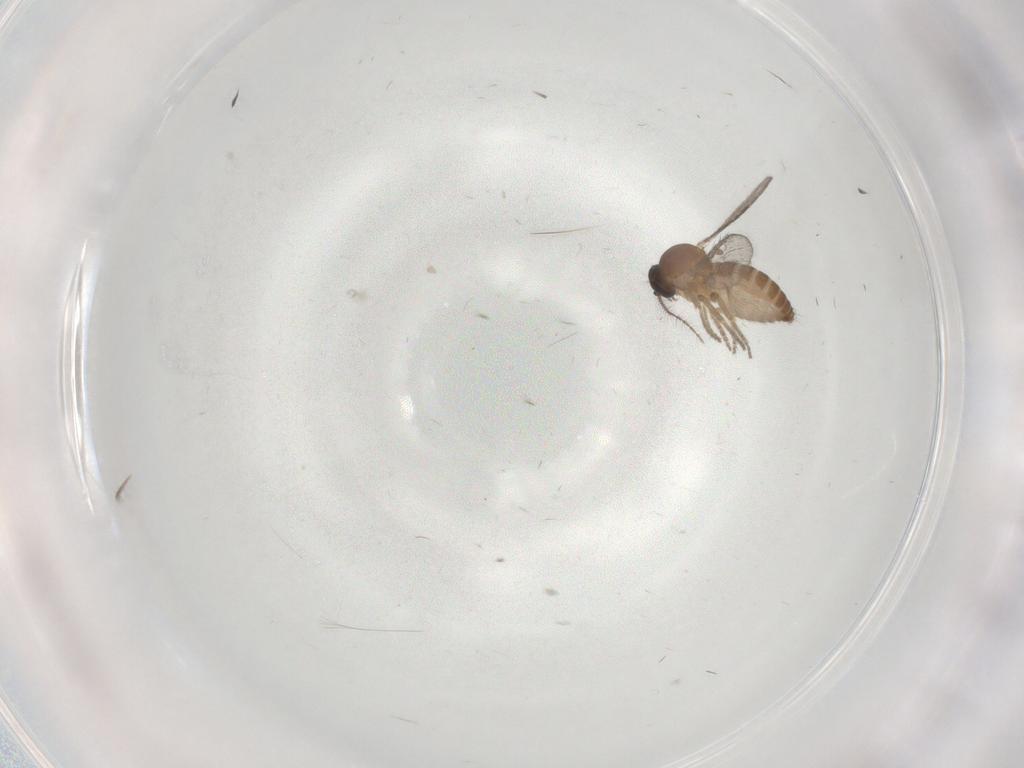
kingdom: Animalia
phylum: Arthropoda
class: Insecta
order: Diptera
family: Ceratopogonidae
